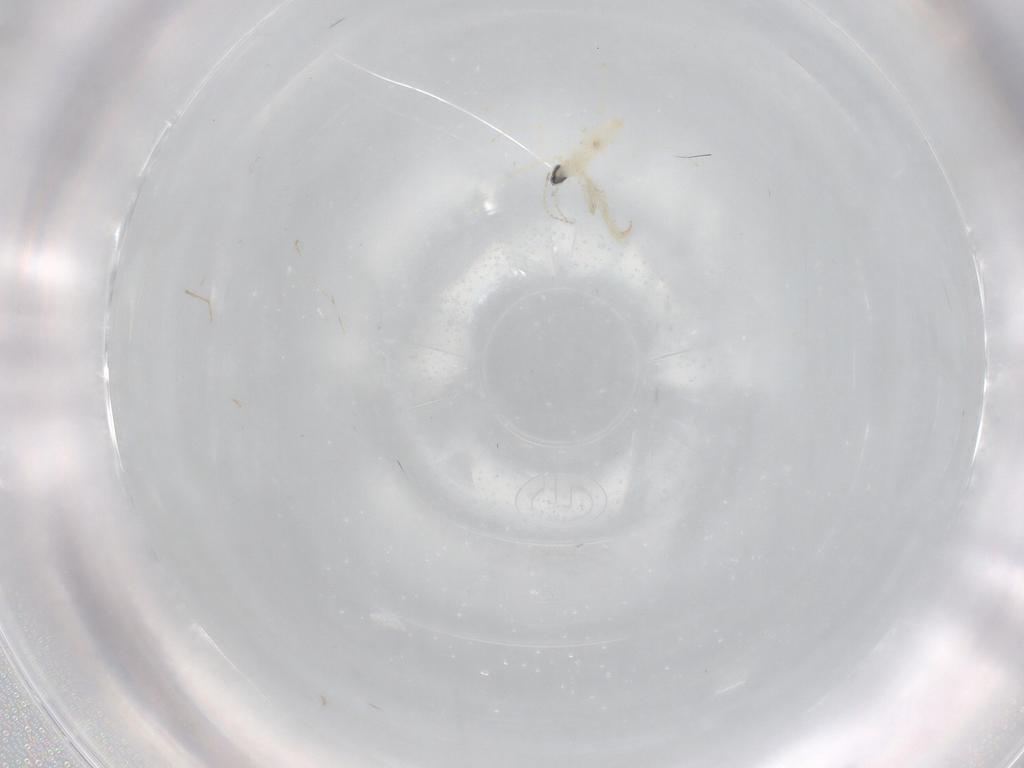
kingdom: Animalia
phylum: Arthropoda
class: Insecta
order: Diptera
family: Cecidomyiidae
